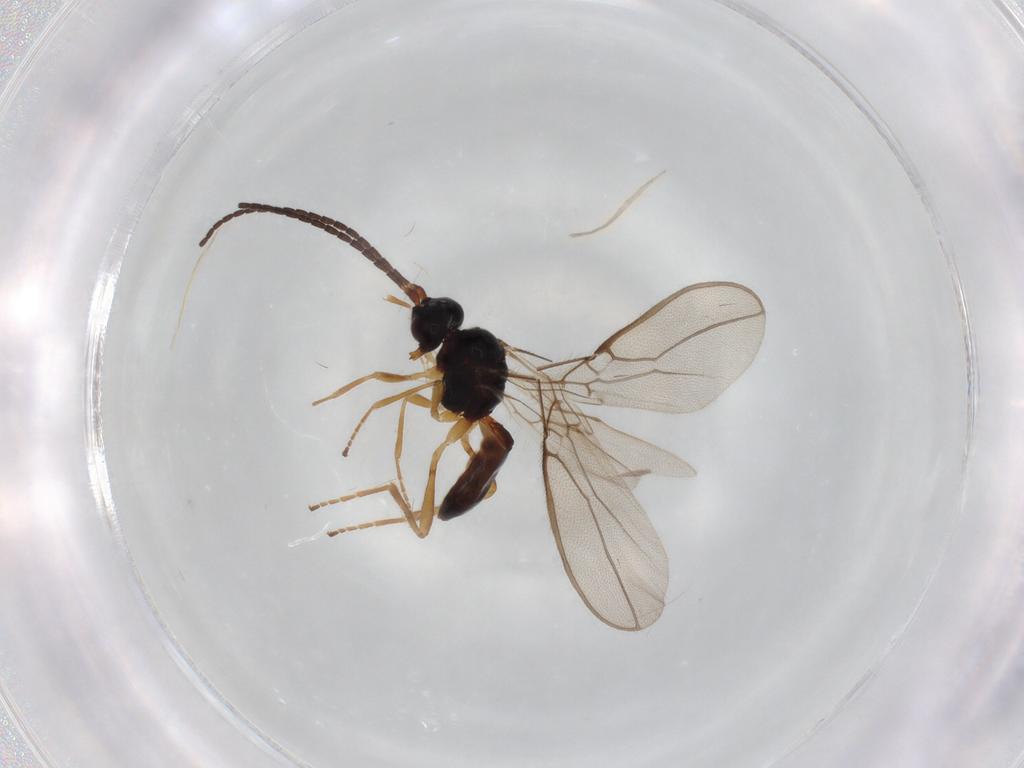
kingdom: Animalia
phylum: Arthropoda
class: Insecta
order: Hymenoptera
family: Braconidae
